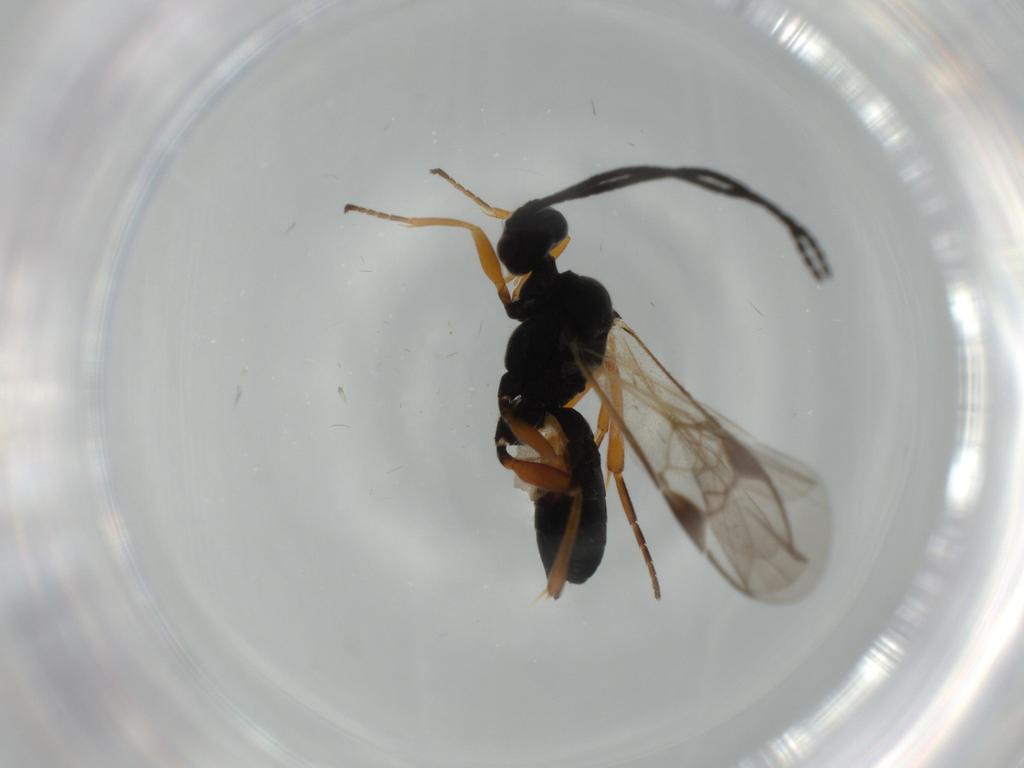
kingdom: Animalia
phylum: Arthropoda
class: Insecta
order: Hymenoptera
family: Braconidae
